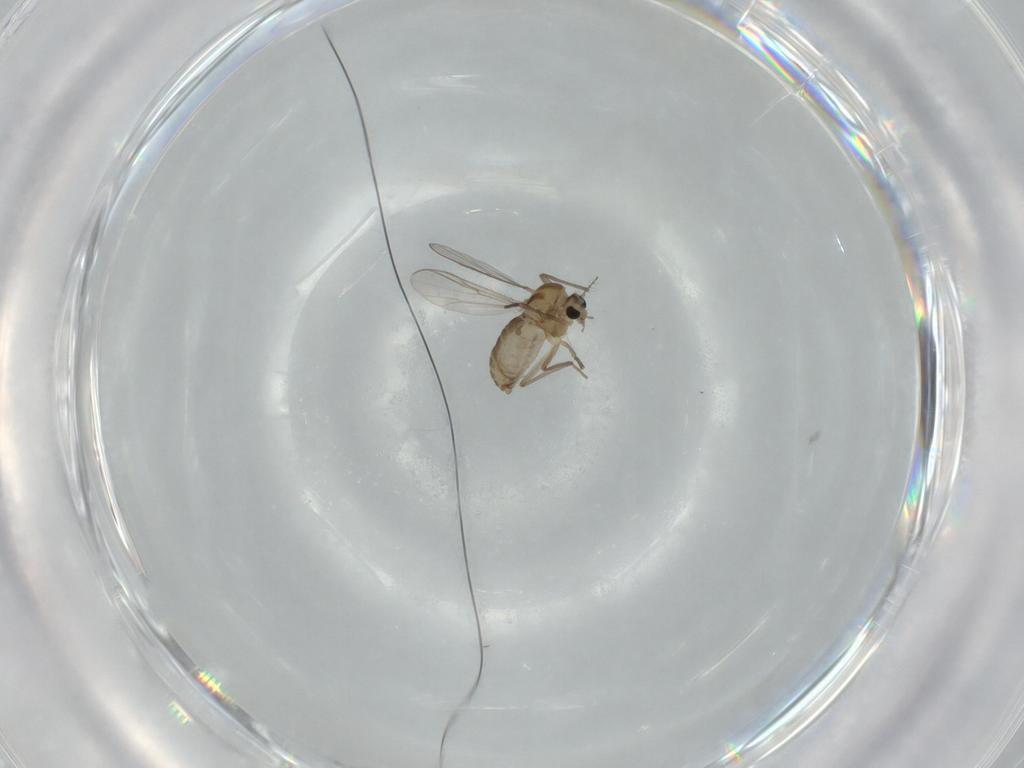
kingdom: Animalia
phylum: Arthropoda
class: Insecta
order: Diptera
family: Chironomidae
